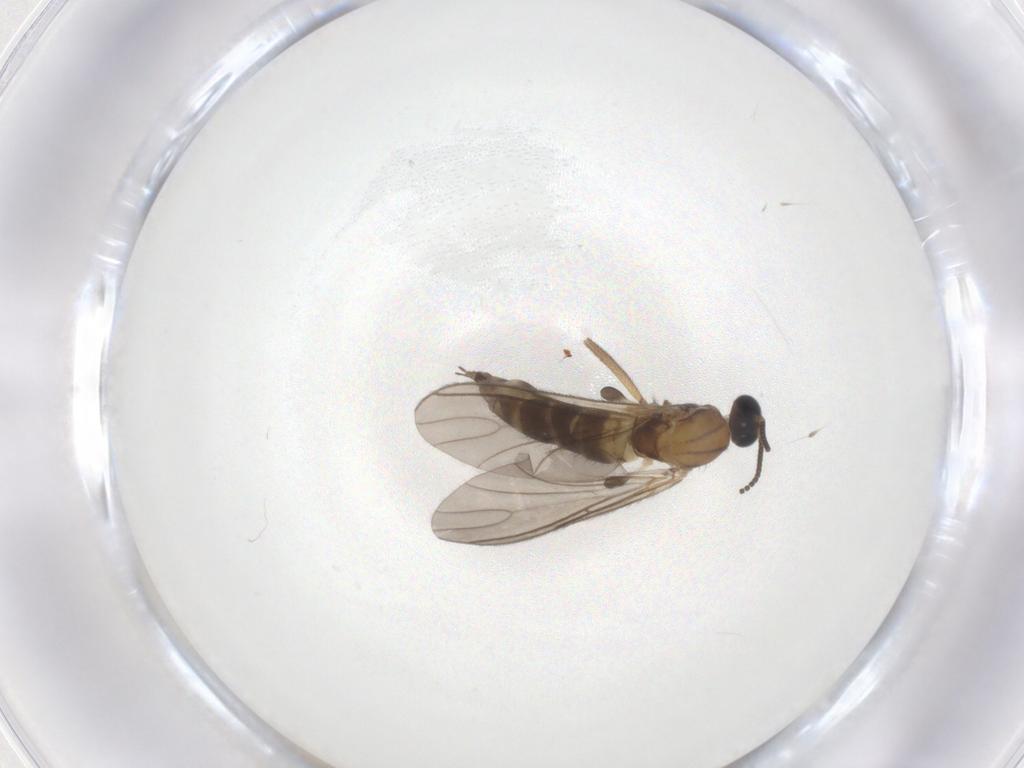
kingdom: Animalia
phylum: Arthropoda
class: Insecta
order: Diptera
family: Sciaridae
